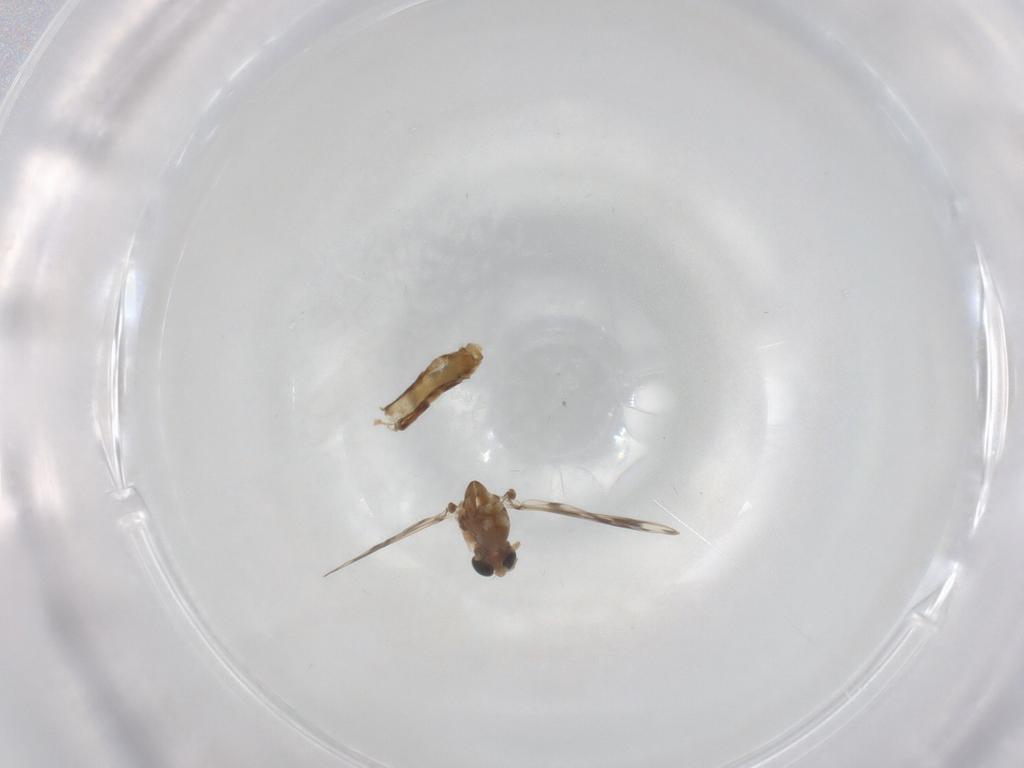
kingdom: Animalia
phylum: Arthropoda
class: Insecta
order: Diptera
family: Chironomidae
